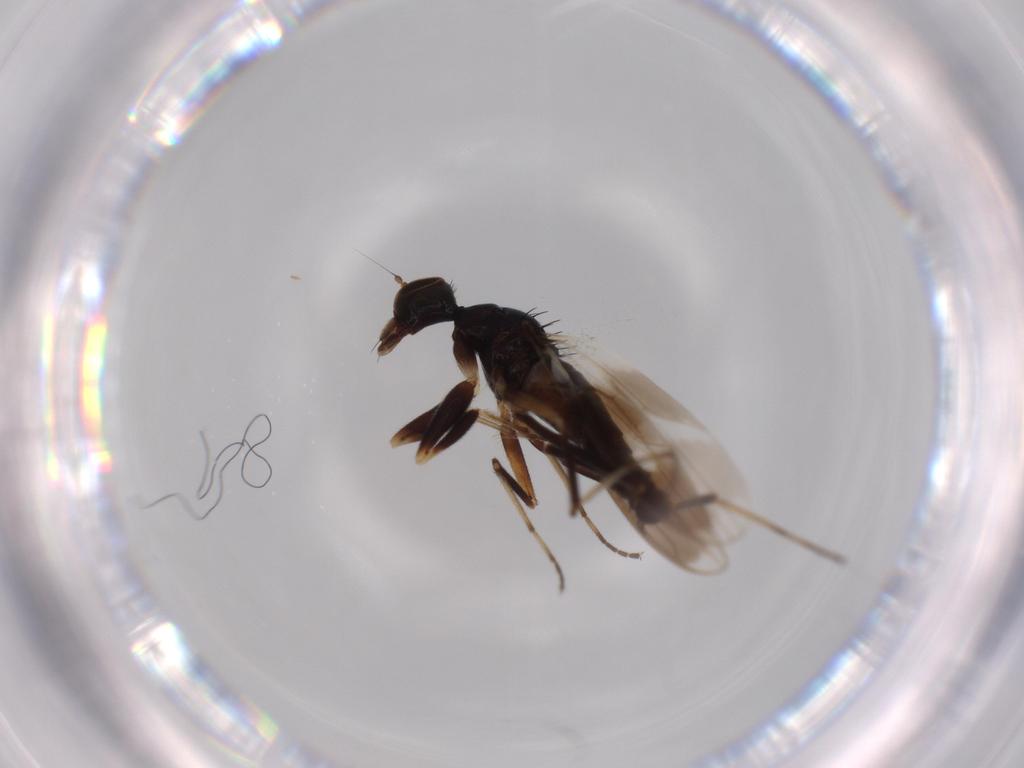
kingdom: Animalia
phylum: Arthropoda
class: Insecta
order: Diptera
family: Hybotidae
